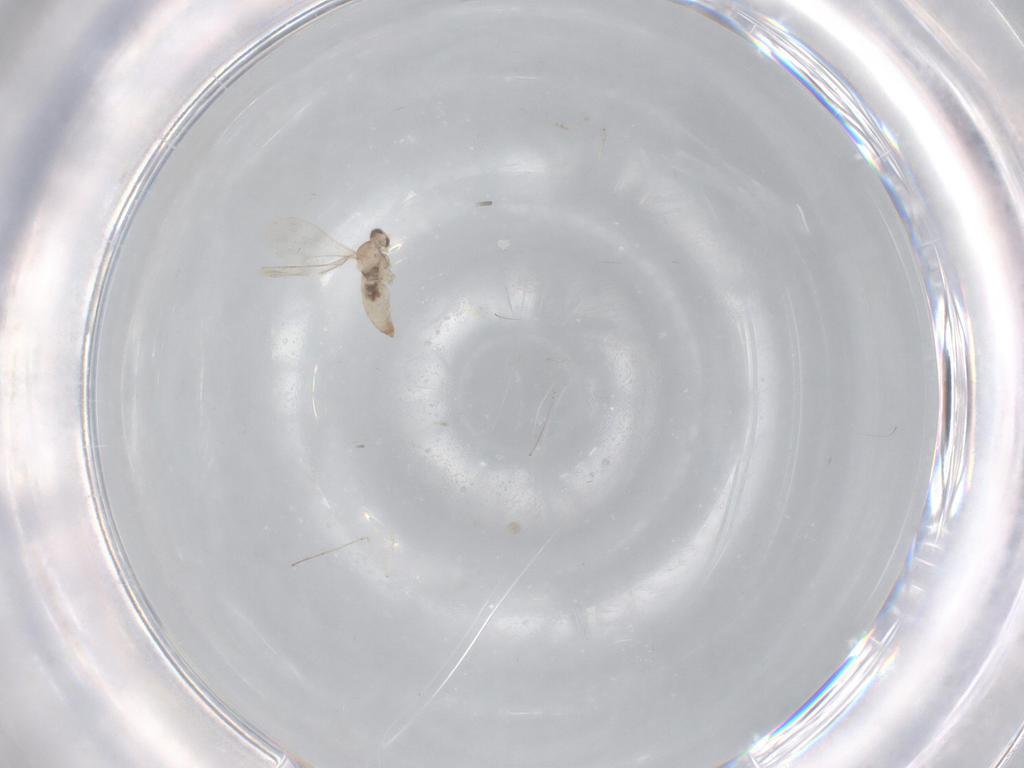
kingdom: Animalia
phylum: Arthropoda
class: Insecta
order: Diptera
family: Cecidomyiidae
